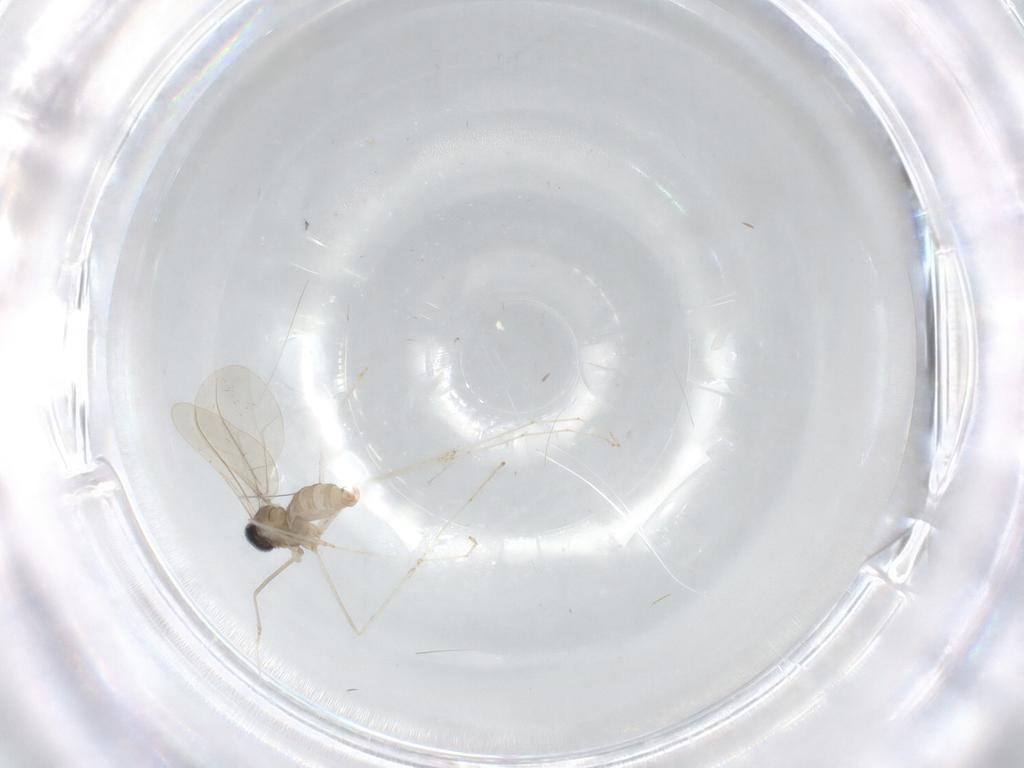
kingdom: Animalia
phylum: Arthropoda
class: Insecta
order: Diptera
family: Cecidomyiidae
